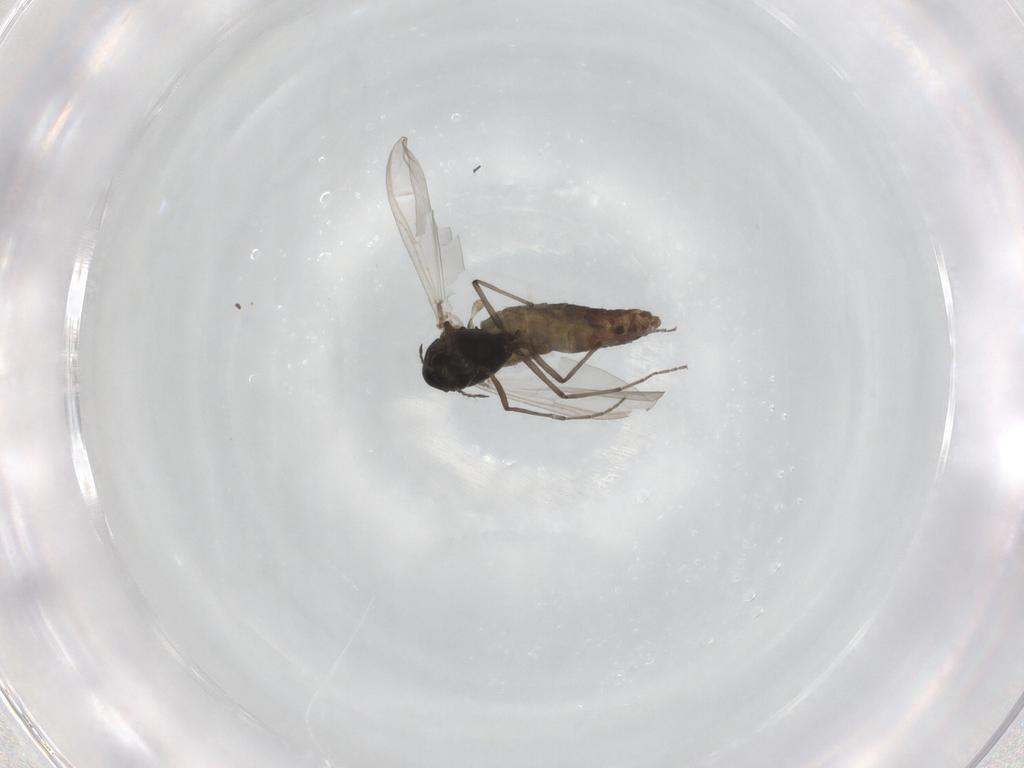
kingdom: Animalia
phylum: Arthropoda
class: Insecta
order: Diptera
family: Chironomidae
